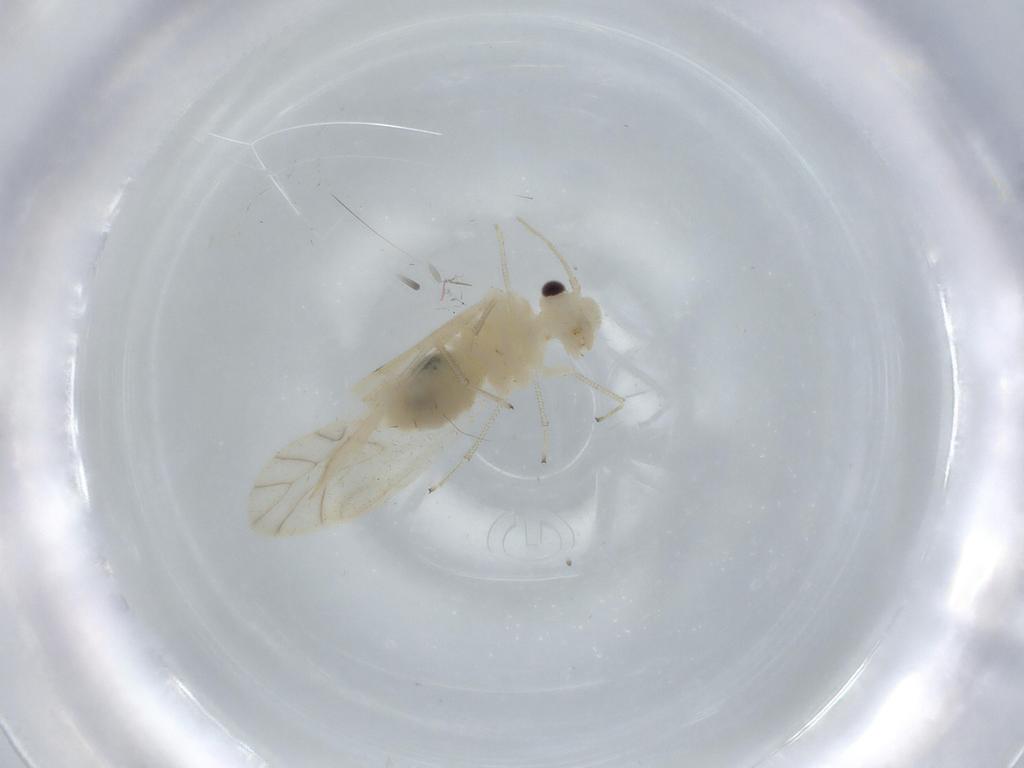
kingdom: Animalia
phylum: Arthropoda
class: Insecta
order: Psocodea
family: Caeciliusidae
